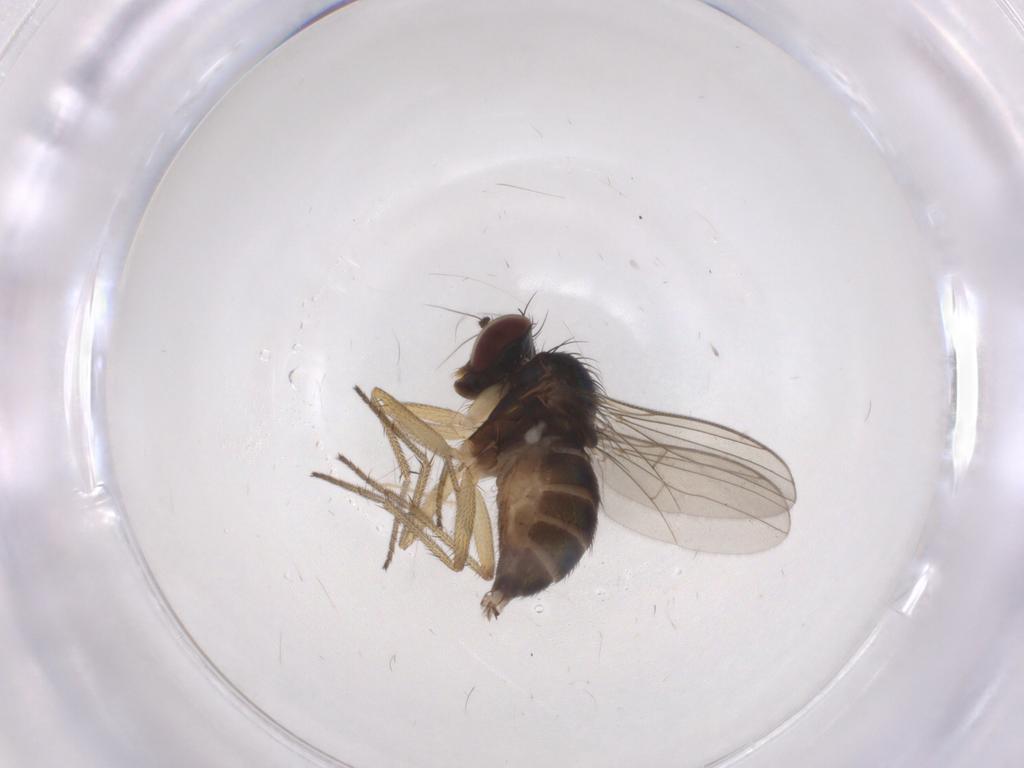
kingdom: Animalia
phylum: Arthropoda
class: Insecta
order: Diptera
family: Dolichopodidae
